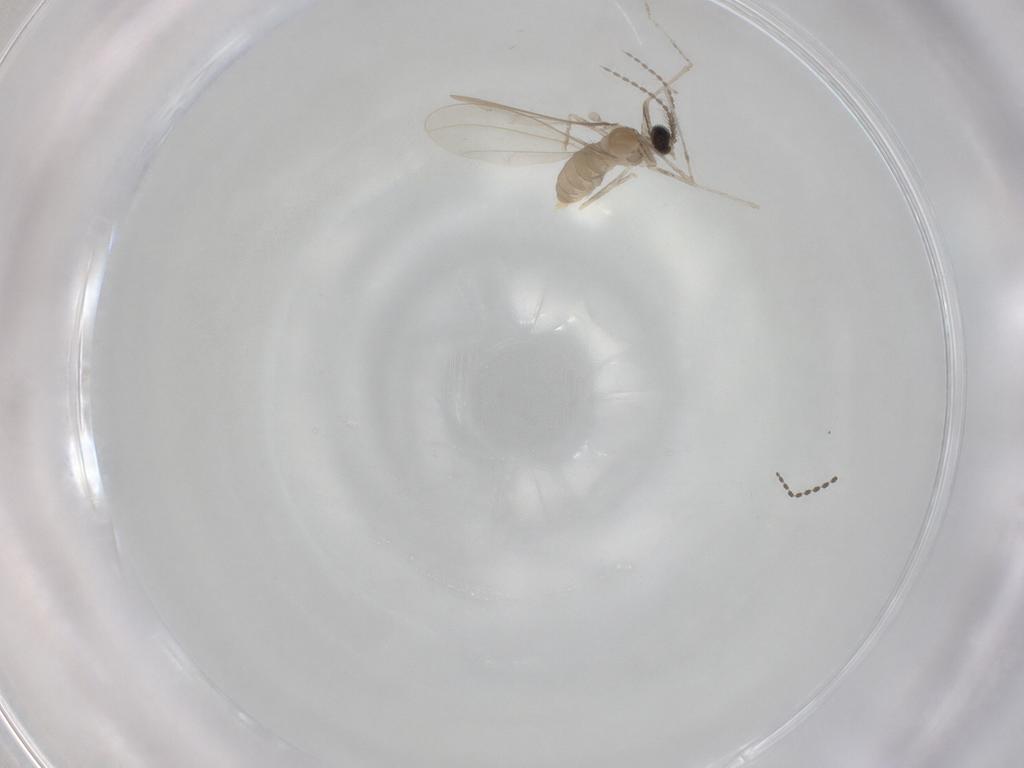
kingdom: Animalia
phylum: Arthropoda
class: Insecta
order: Diptera
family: Cecidomyiidae
